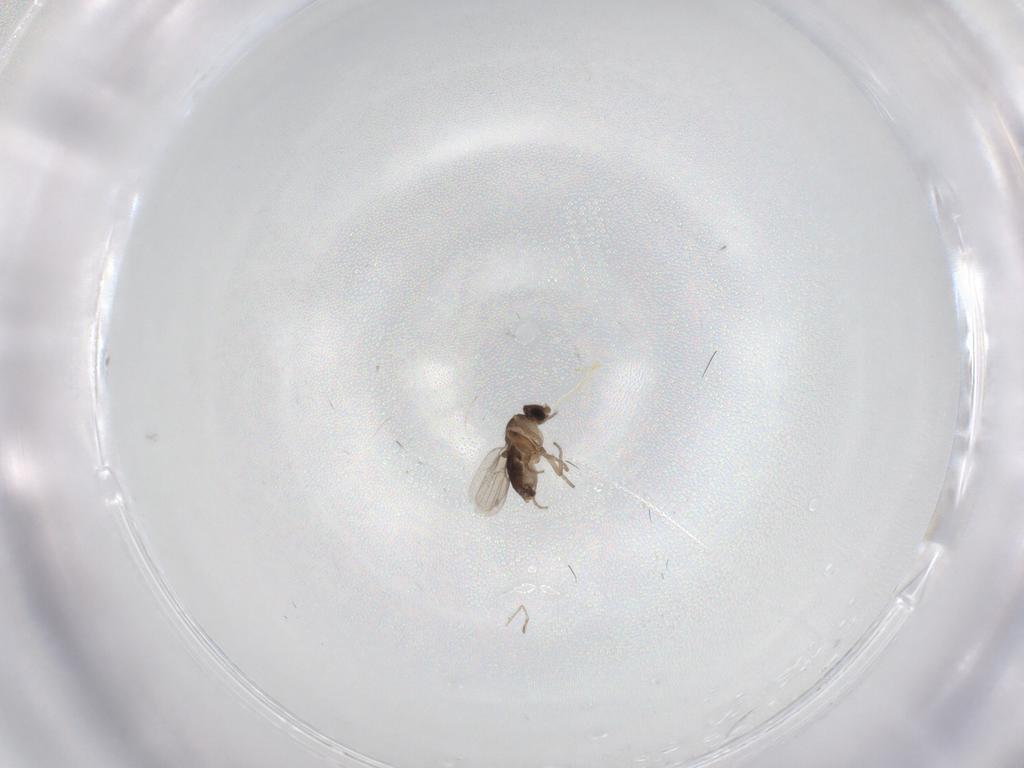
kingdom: Animalia
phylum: Arthropoda
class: Insecta
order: Diptera
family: Phoridae
